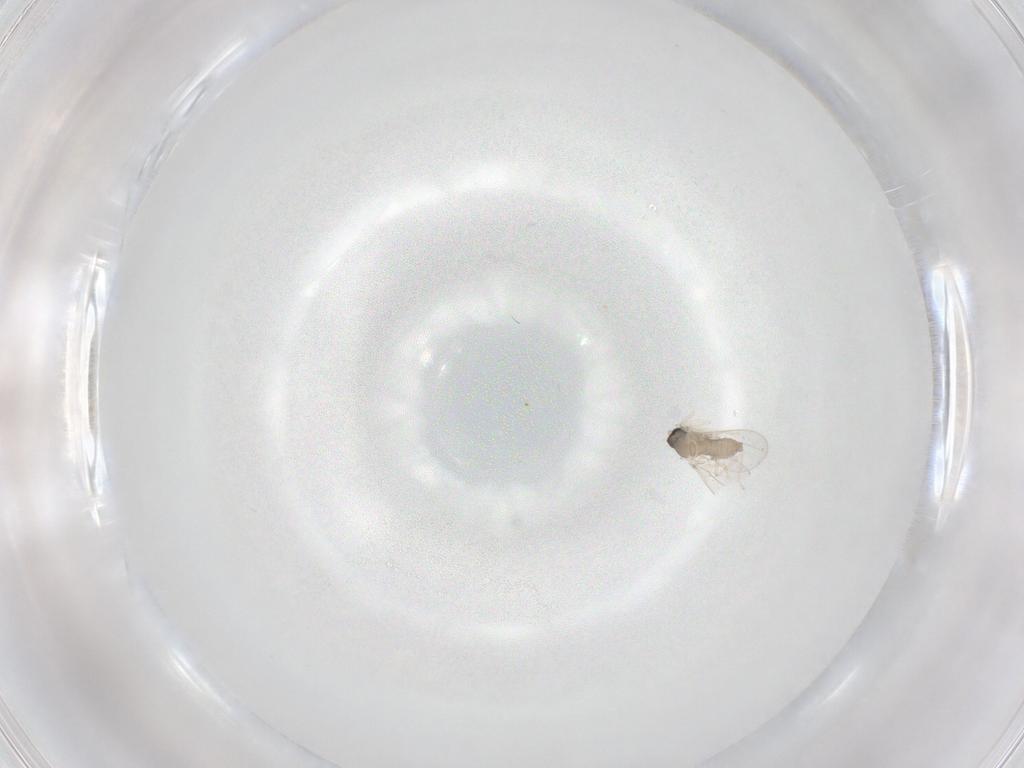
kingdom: Animalia
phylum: Arthropoda
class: Insecta
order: Diptera
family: Cecidomyiidae
